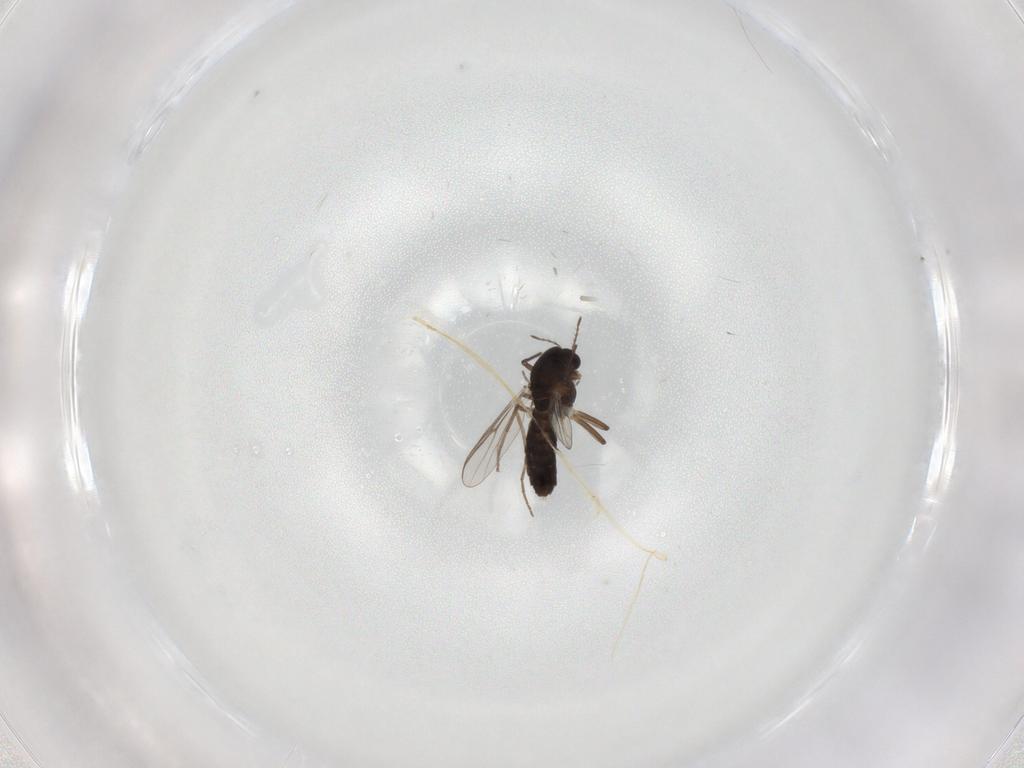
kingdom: Animalia
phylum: Arthropoda
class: Insecta
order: Diptera
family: Chironomidae
